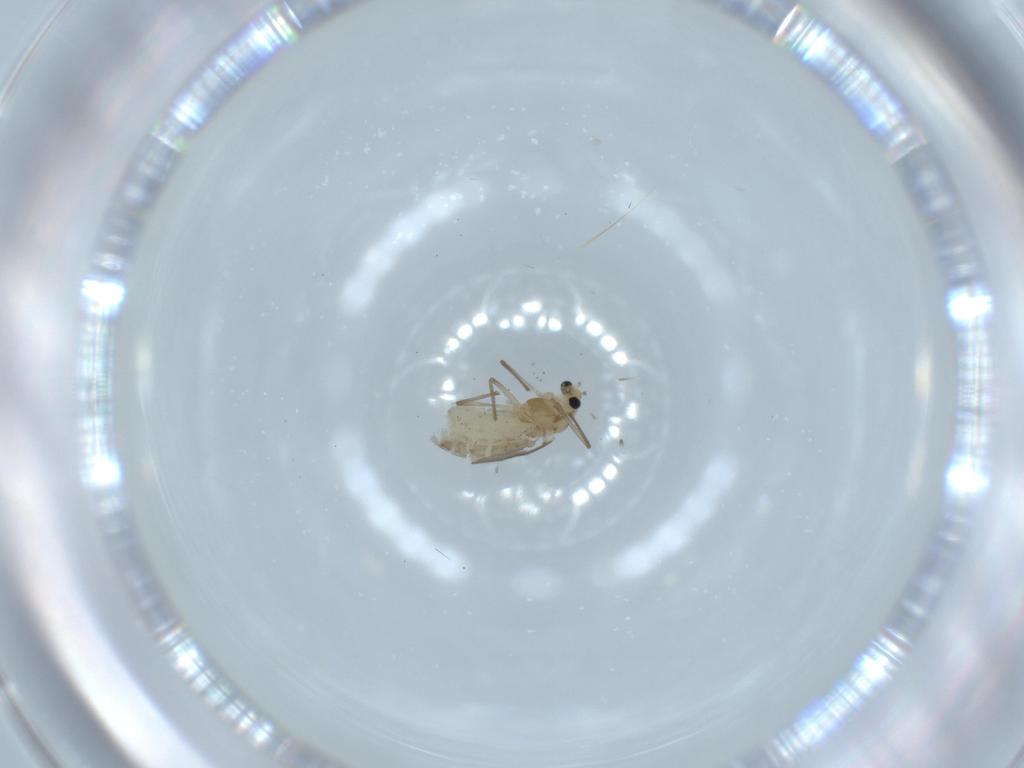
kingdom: Animalia
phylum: Arthropoda
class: Insecta
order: Diptera
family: Chironomidae
